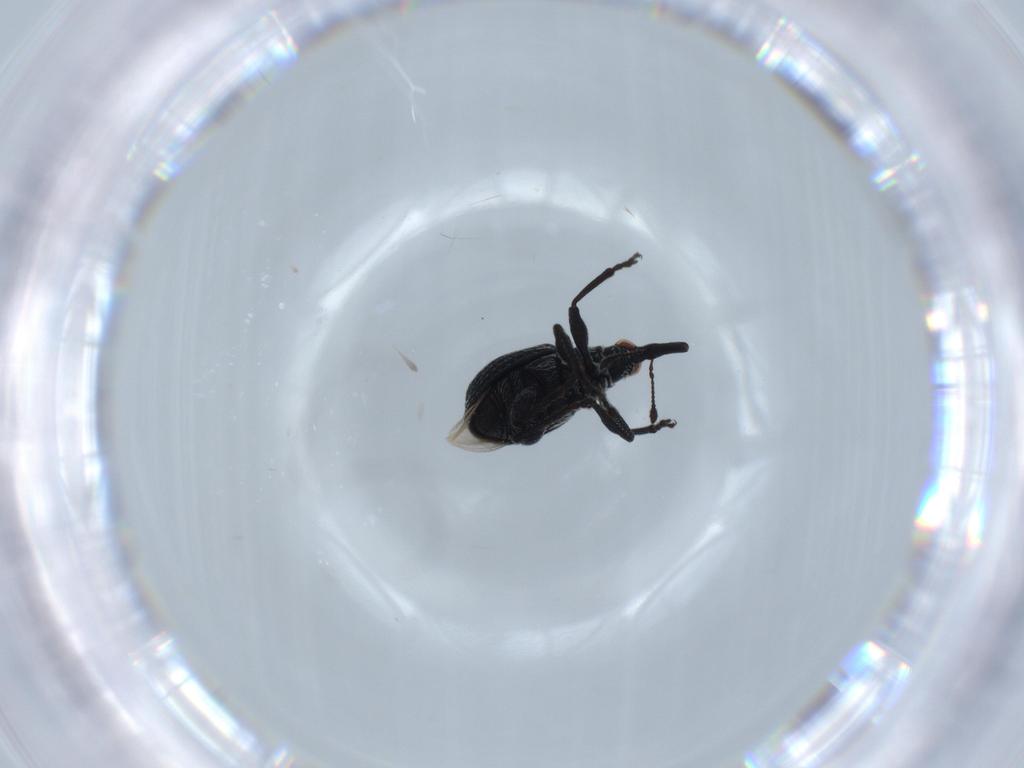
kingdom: Animalia
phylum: Arthropoda
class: Insecta
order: Coleoptera
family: Brentidae
